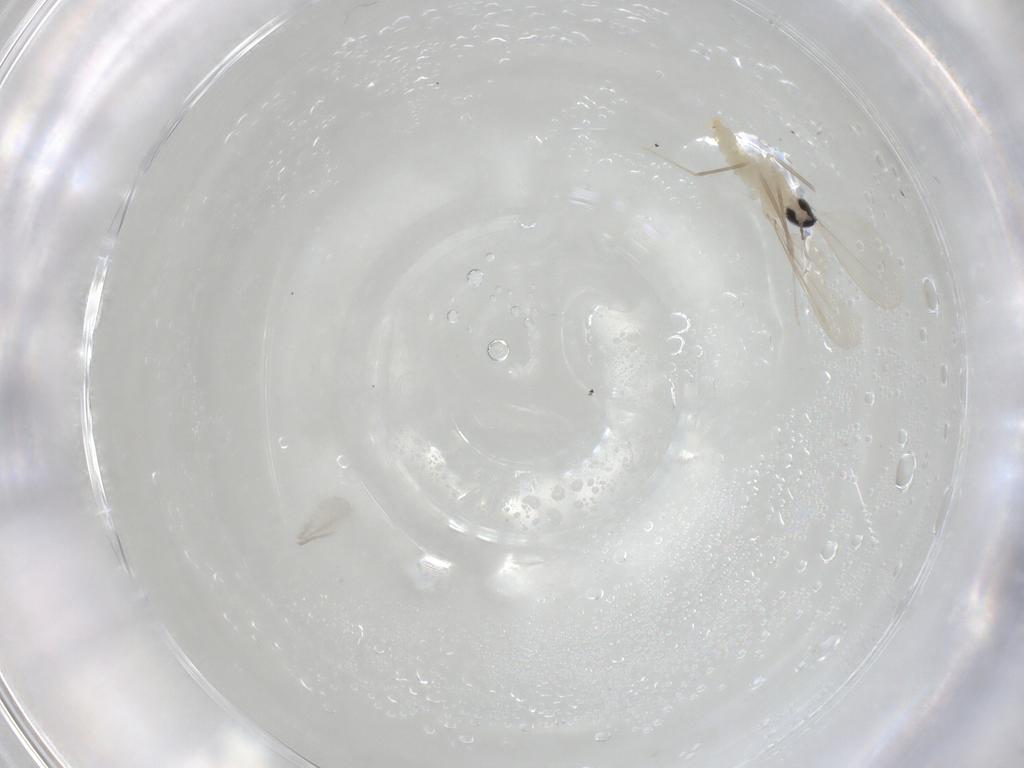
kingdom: Animalia
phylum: Arthropoda
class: Insecta
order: Diptera
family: Cecidomyiidae
